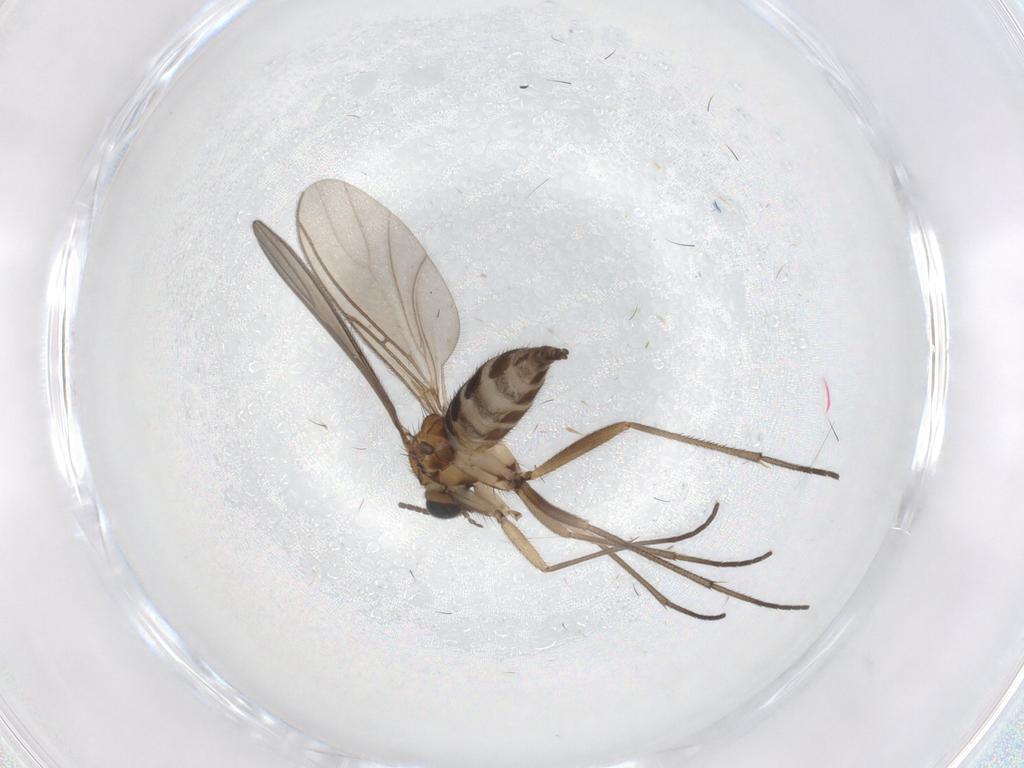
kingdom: Animalia
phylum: Arthropoda
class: Insecta
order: Diptera
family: Sciaridae
